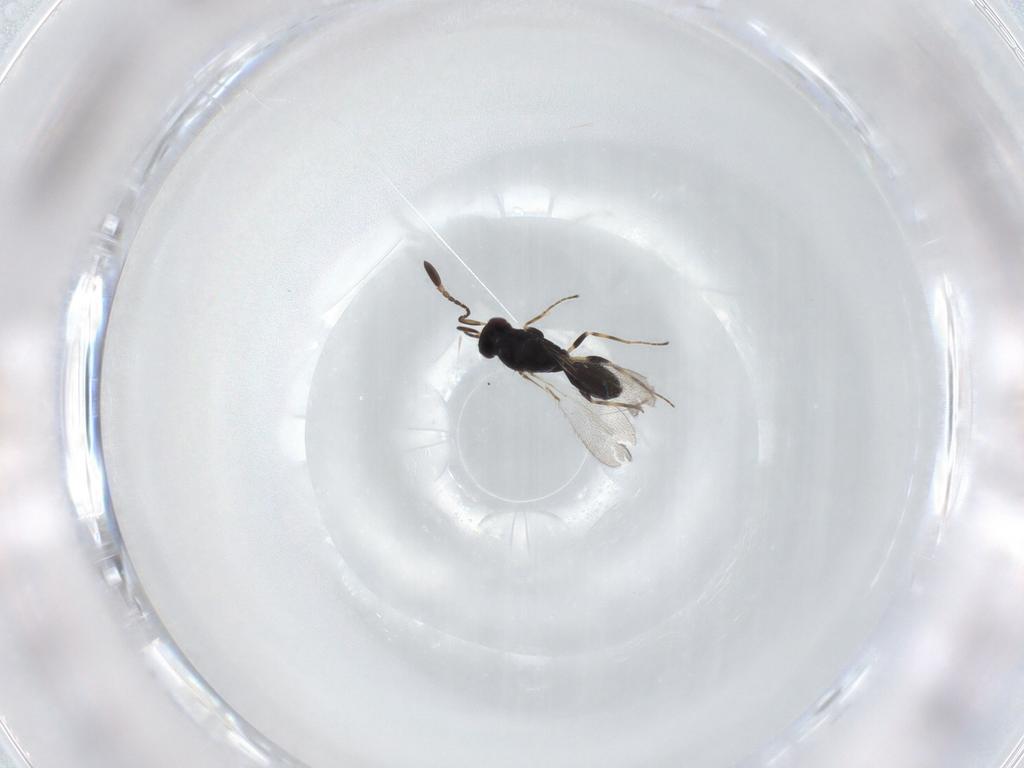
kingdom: Animalia
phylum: Arthropoda
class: Insecta
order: Hymenoptera
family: Mymaridae
